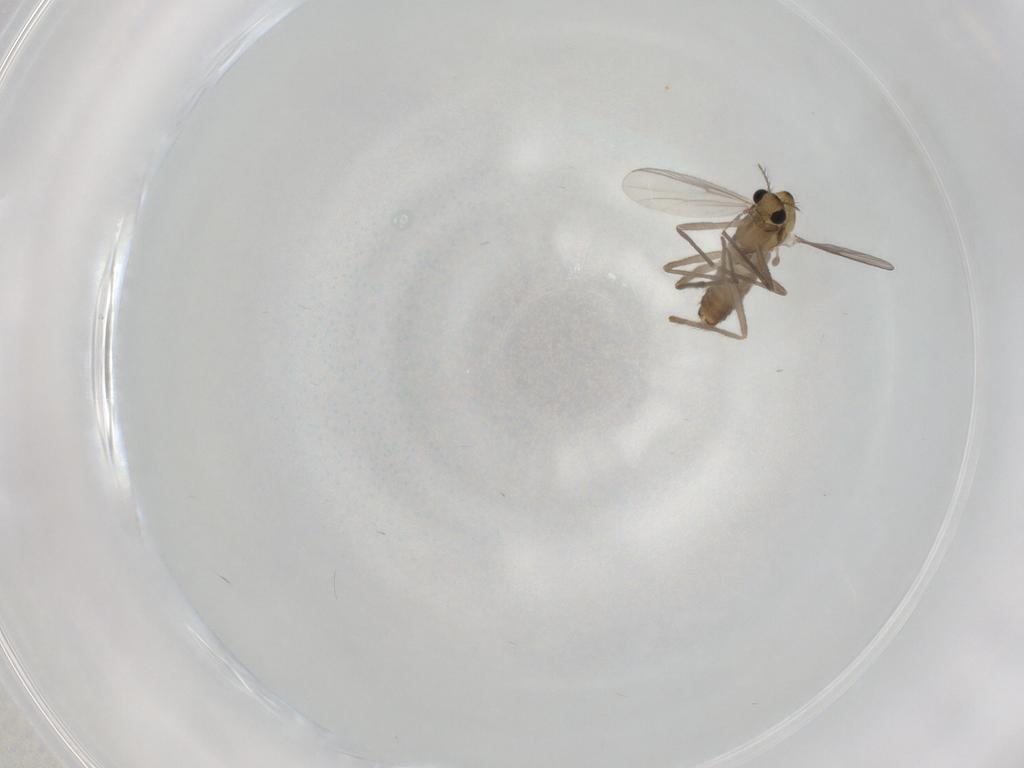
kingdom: Animalia
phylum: Arthropoda
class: Insecta
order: Diptera
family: Chironomidae
